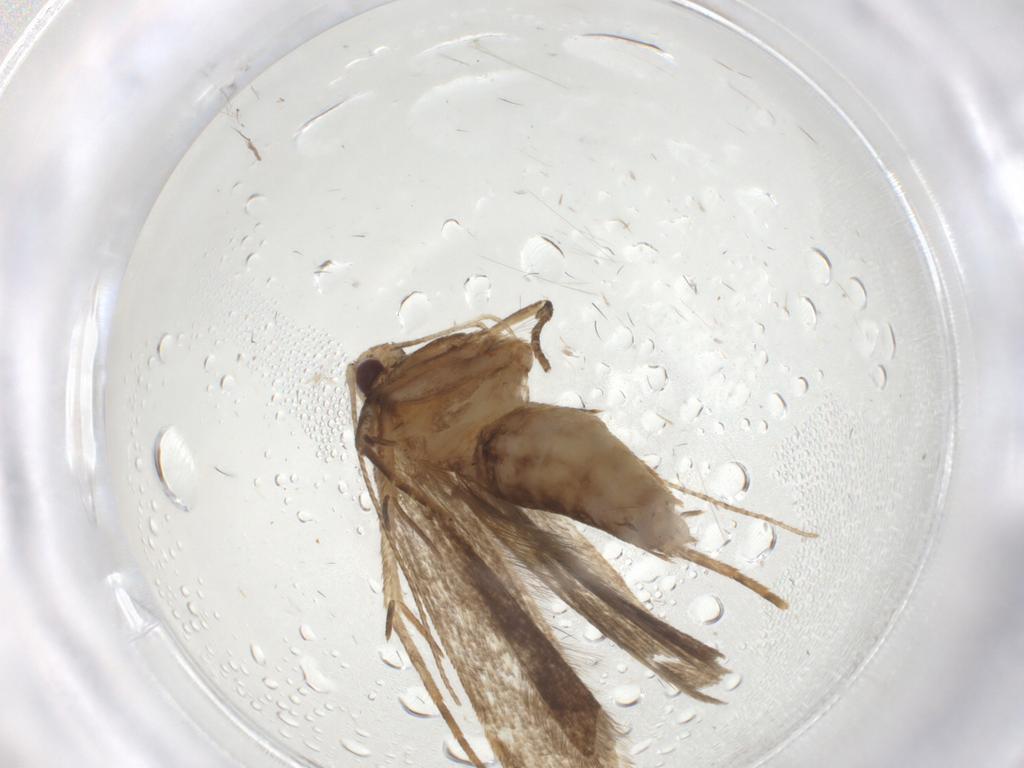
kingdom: Animalia
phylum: Arthropoda
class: Insecta
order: Lepidoptera
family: Gelechiidae
